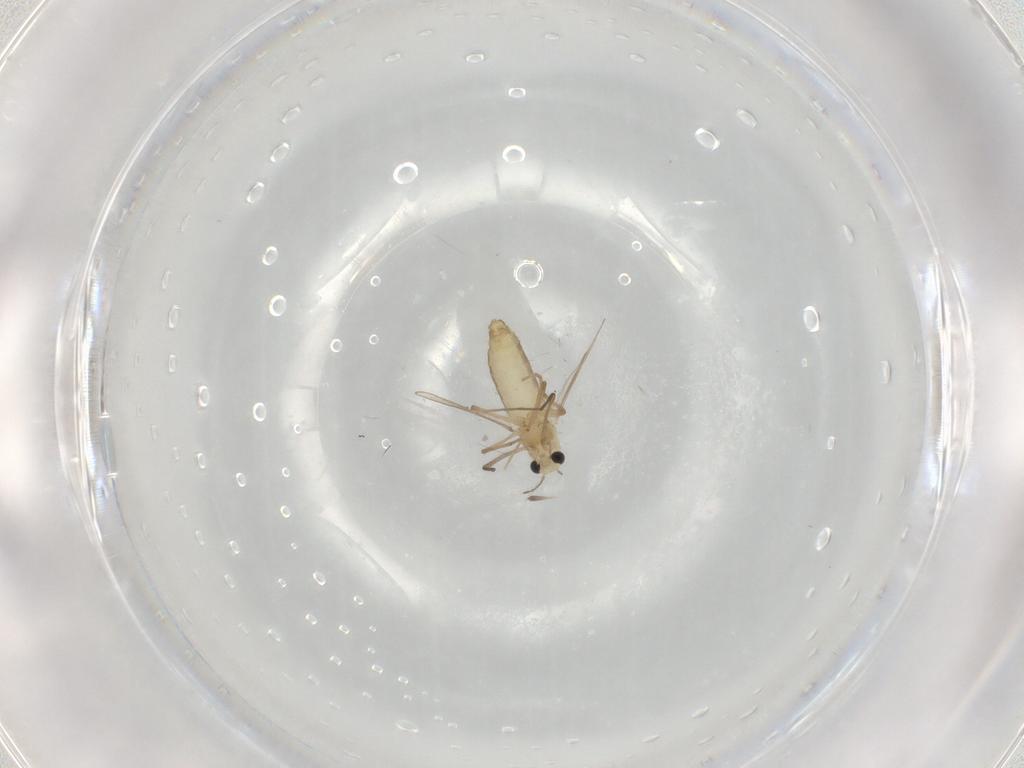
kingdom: Animalia
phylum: Arthropoda
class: Insecta
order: Diptera
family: Chironomidae
